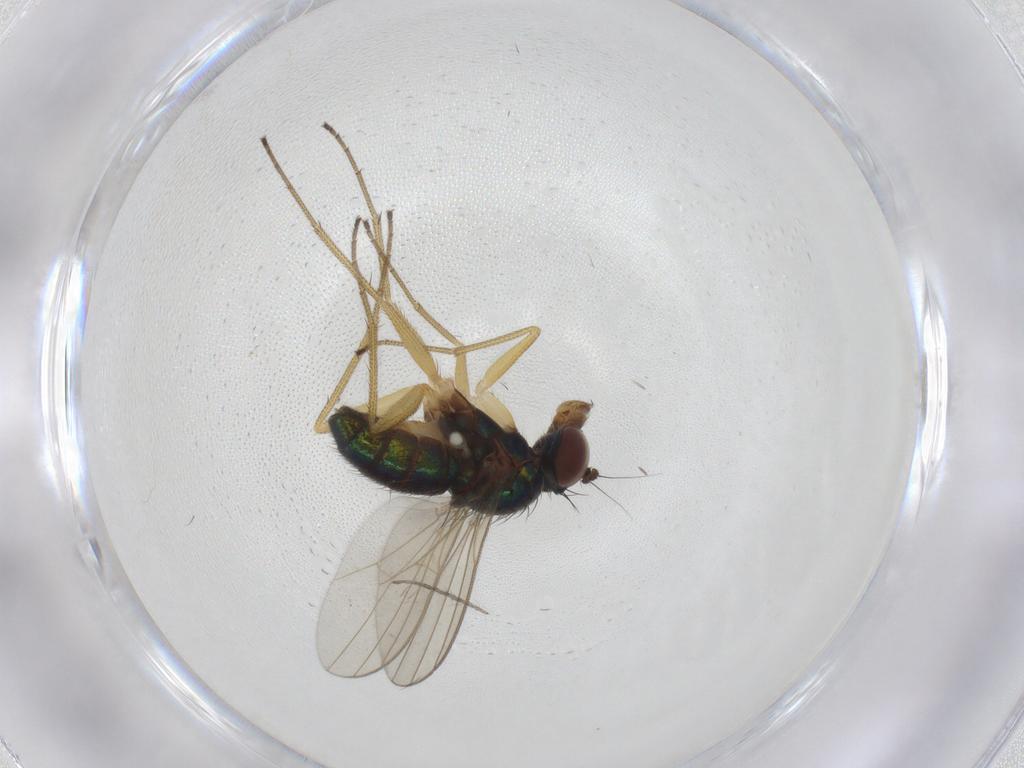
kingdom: Animalia
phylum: Arthropoda
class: Insecta
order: Diptera
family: Dolichopodidae
